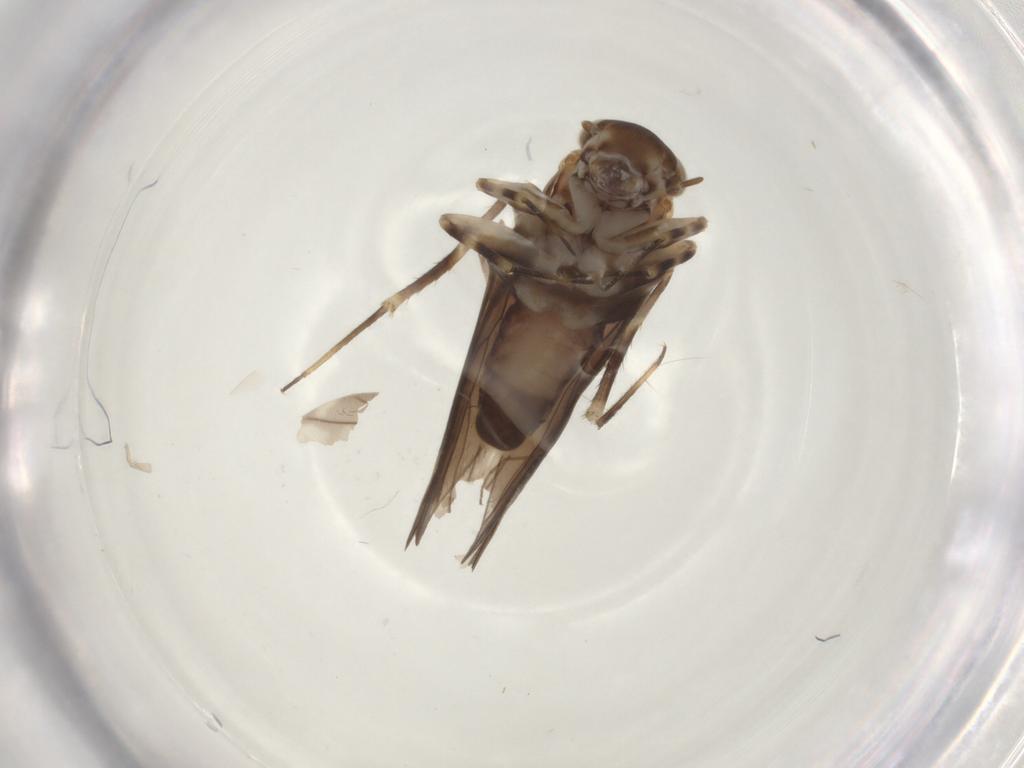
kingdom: Animalia
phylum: Arthropoda
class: Insecta
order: Psocodea
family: Amphientomidae
